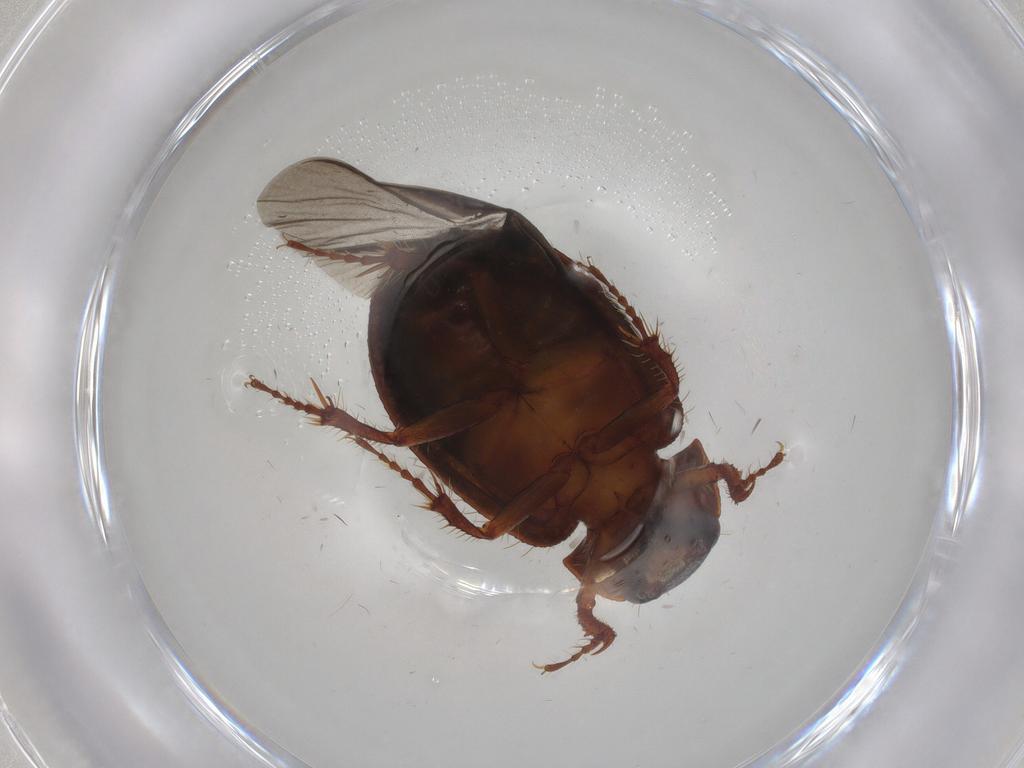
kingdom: Animalia
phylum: Arthropoda
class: Insecta
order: Coleoptera
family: Hybosoridae
